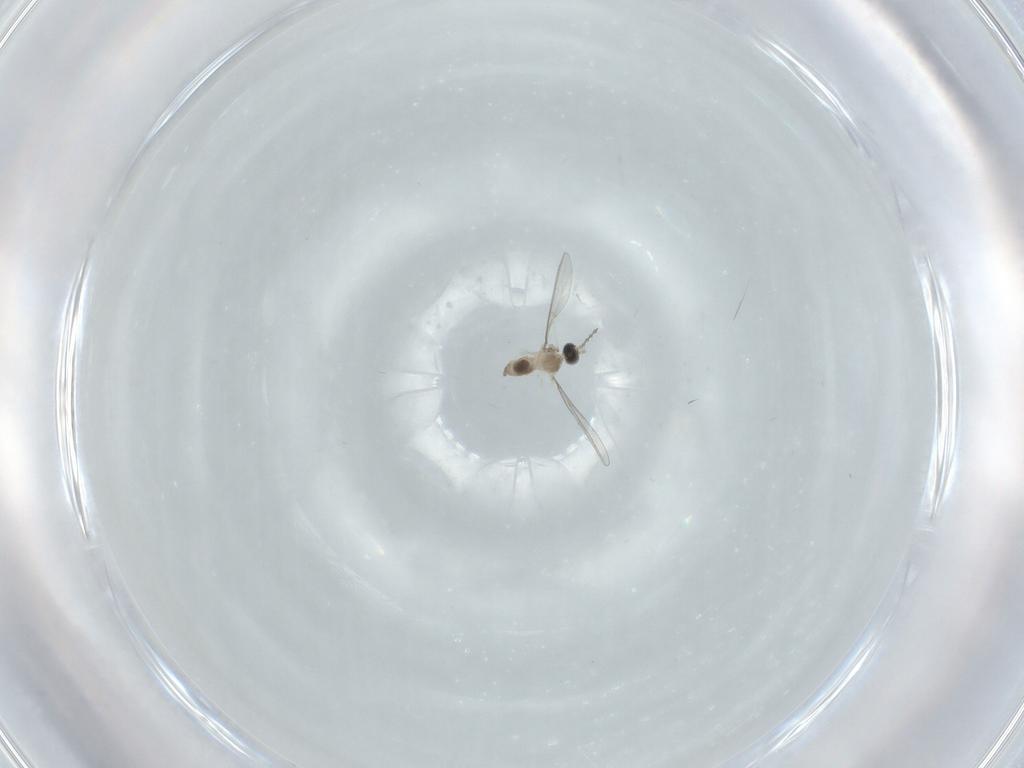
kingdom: Animalia
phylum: Arthropoda
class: Insecta
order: Diptera
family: Cecidomyiidae
